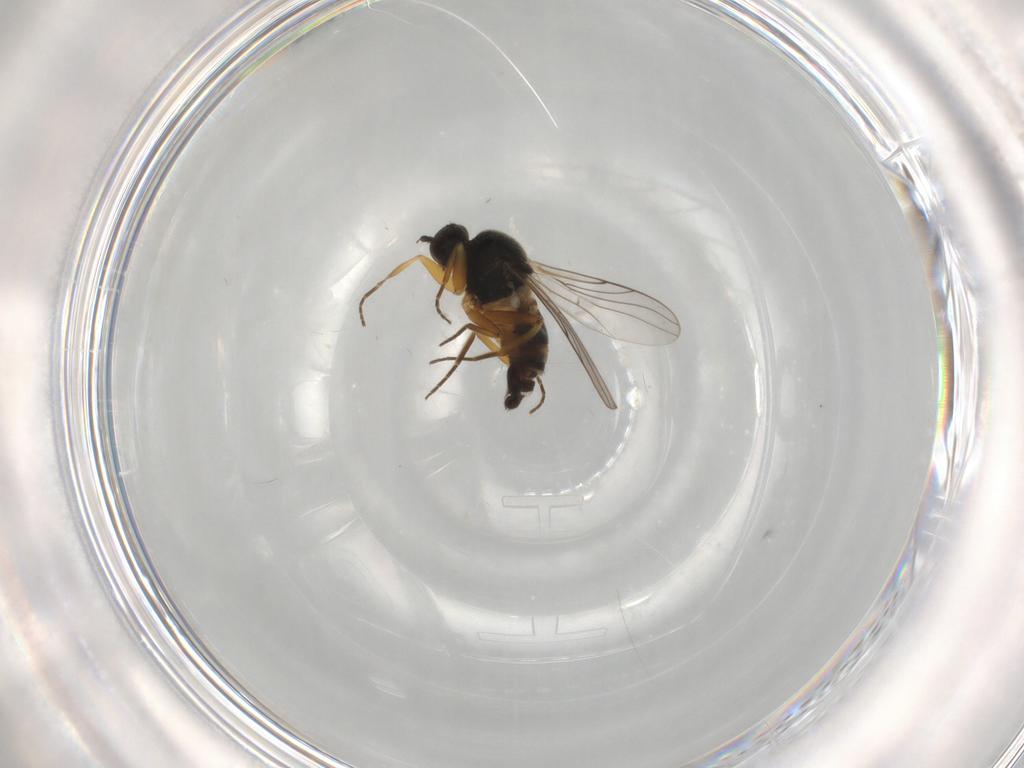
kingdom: Animalia
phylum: Arthropoda
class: Insecta
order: Diptera
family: Hybotidae
